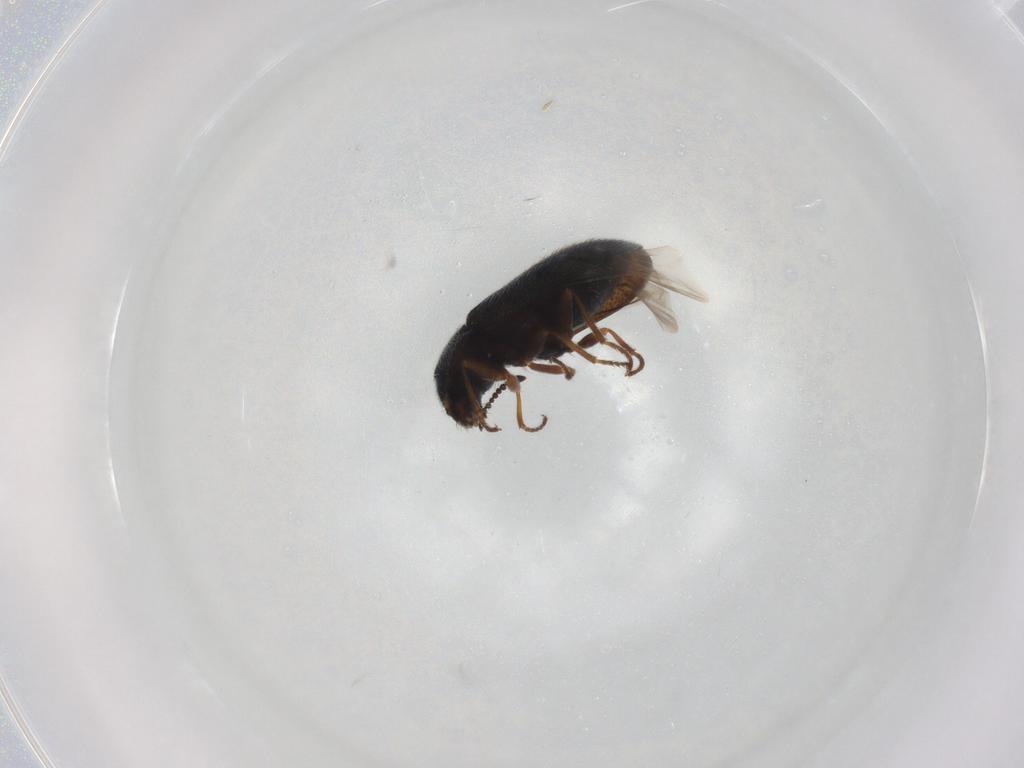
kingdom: Animalia
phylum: Arthropoda
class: Insecta
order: Coleoptera
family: Melyridae
